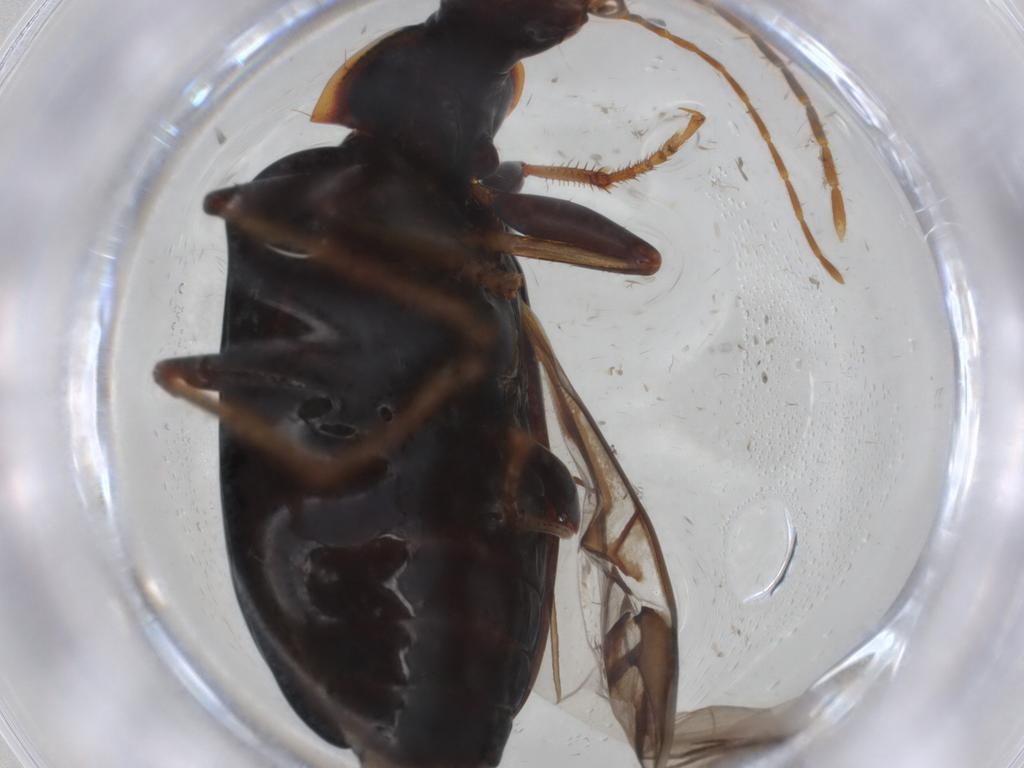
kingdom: Animalia
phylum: Arthropoda
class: Insecta
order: Coleoptera
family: Carabidae
